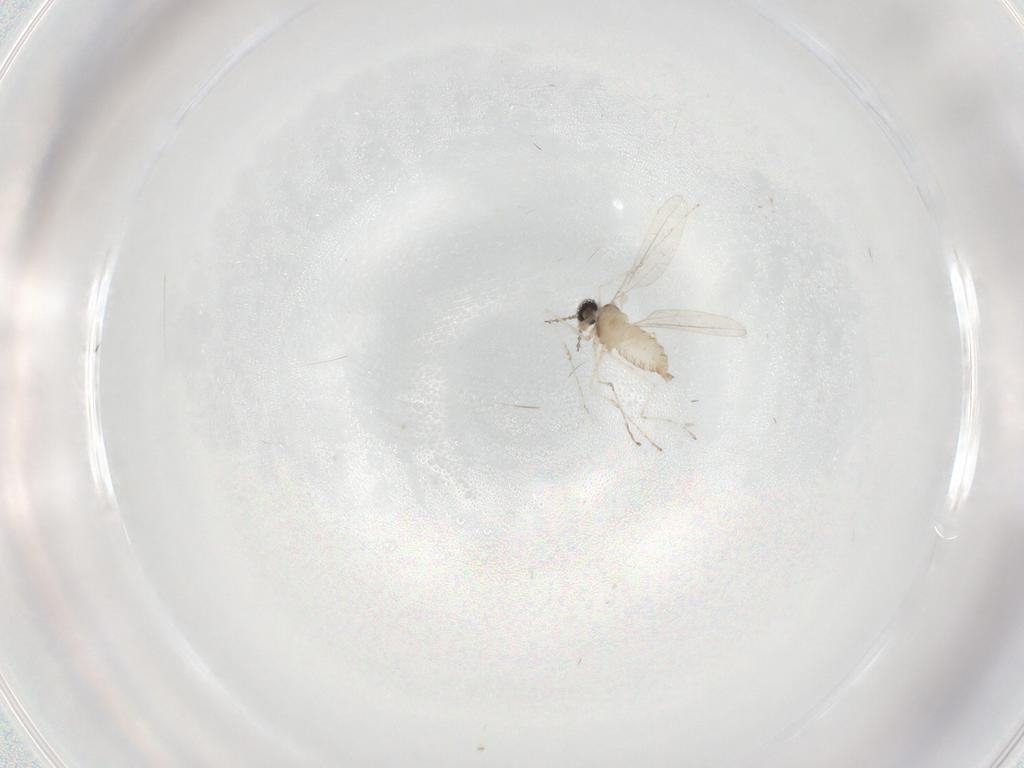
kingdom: Animalia
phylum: Arthropoda
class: Insecta
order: Diptera
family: Cecidomyiidae
